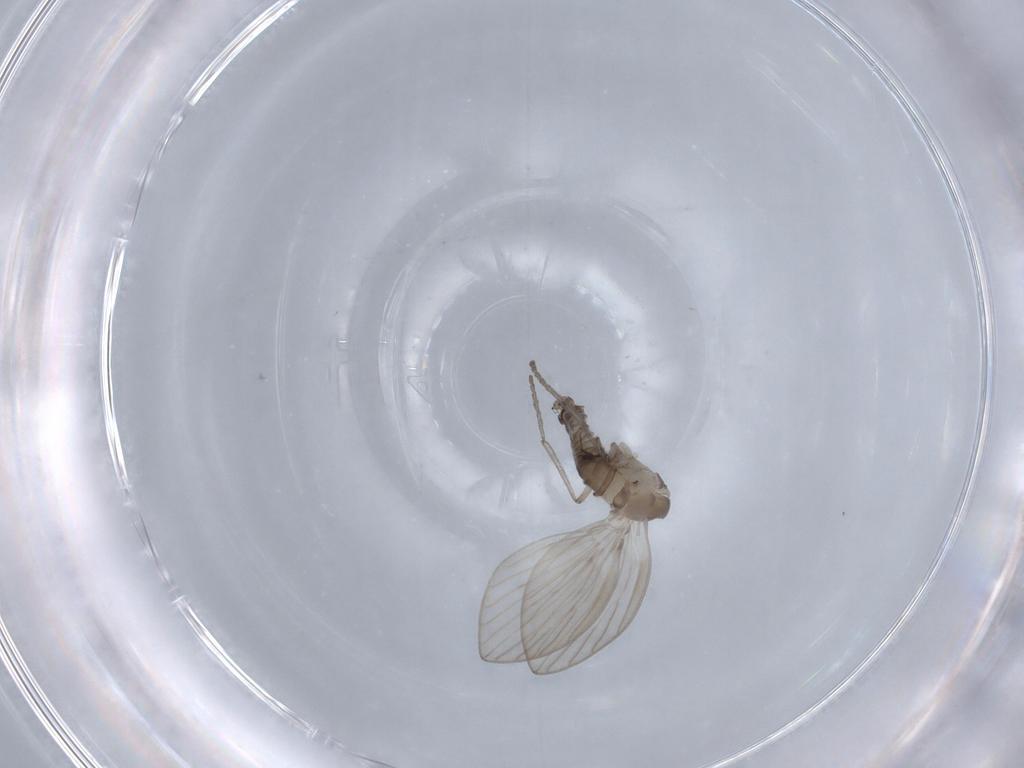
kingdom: Animalia
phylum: Arthropoda
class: Insecta
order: Diptera
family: Psychodidae
